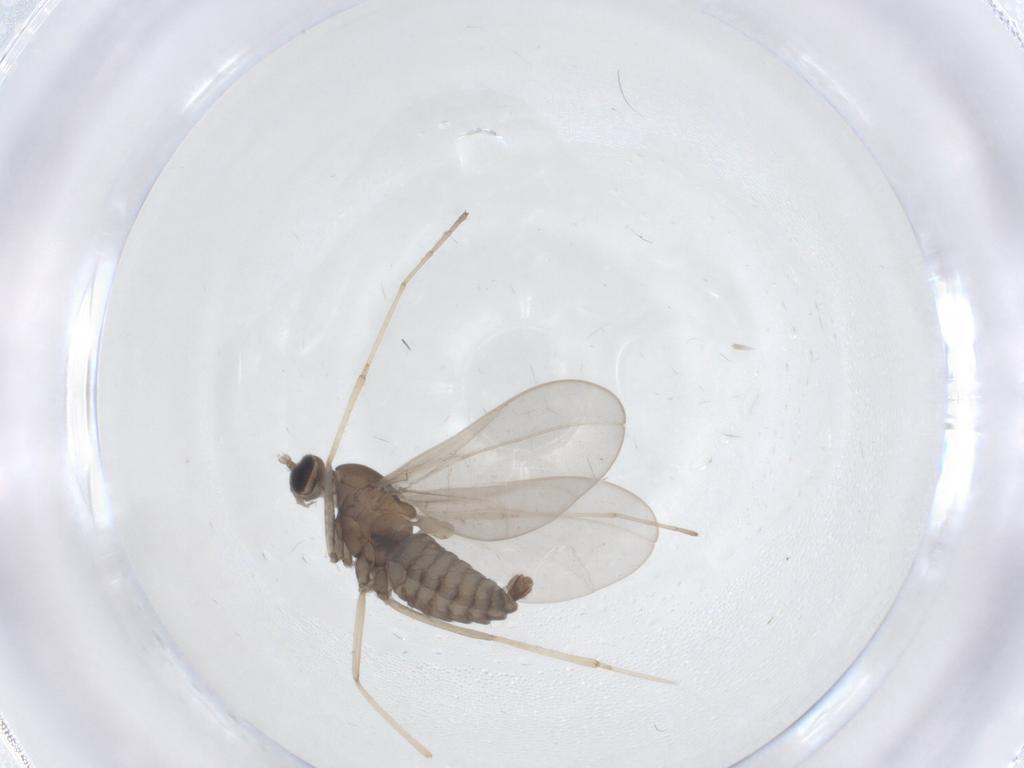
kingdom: Animalia
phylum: Arthropoda
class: Insecta
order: Diptera
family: Cecidomyiidae
